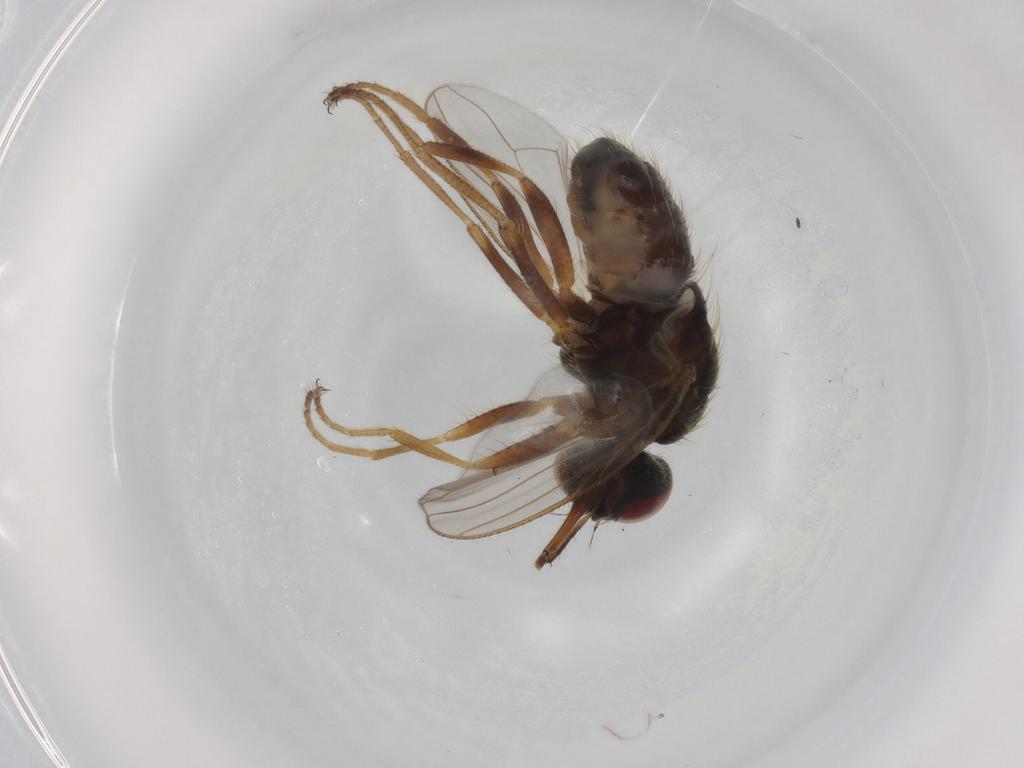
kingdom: Animalia
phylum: Arthropoda
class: Insecta
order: Diptera
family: Muscidae
